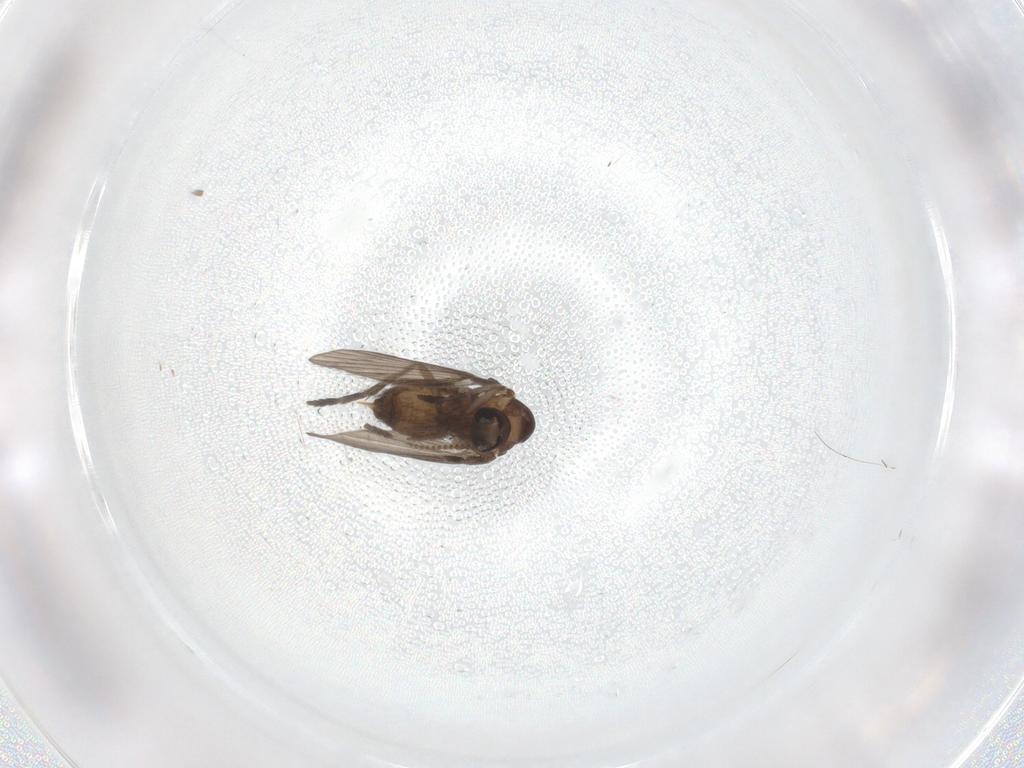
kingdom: Animalia
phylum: Arthropoda
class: Insecta
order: Diptera
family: Psychodidae
